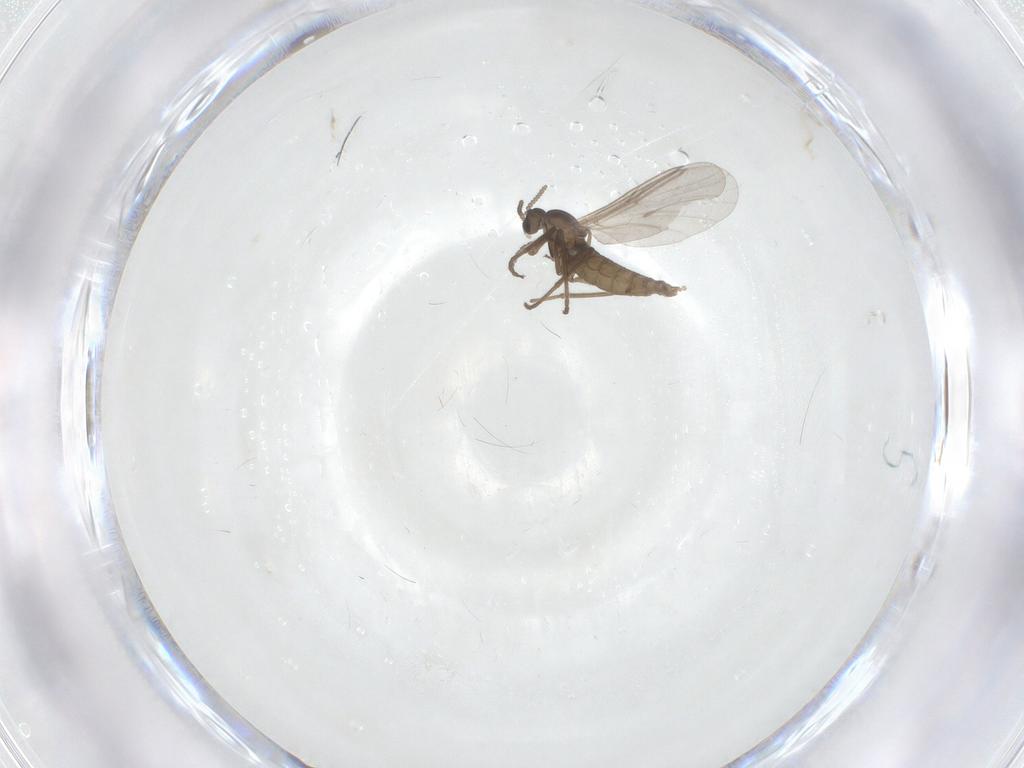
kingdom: Animalia
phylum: Arthropoda
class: Insecta
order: Diptera
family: Cecidomyiidae
